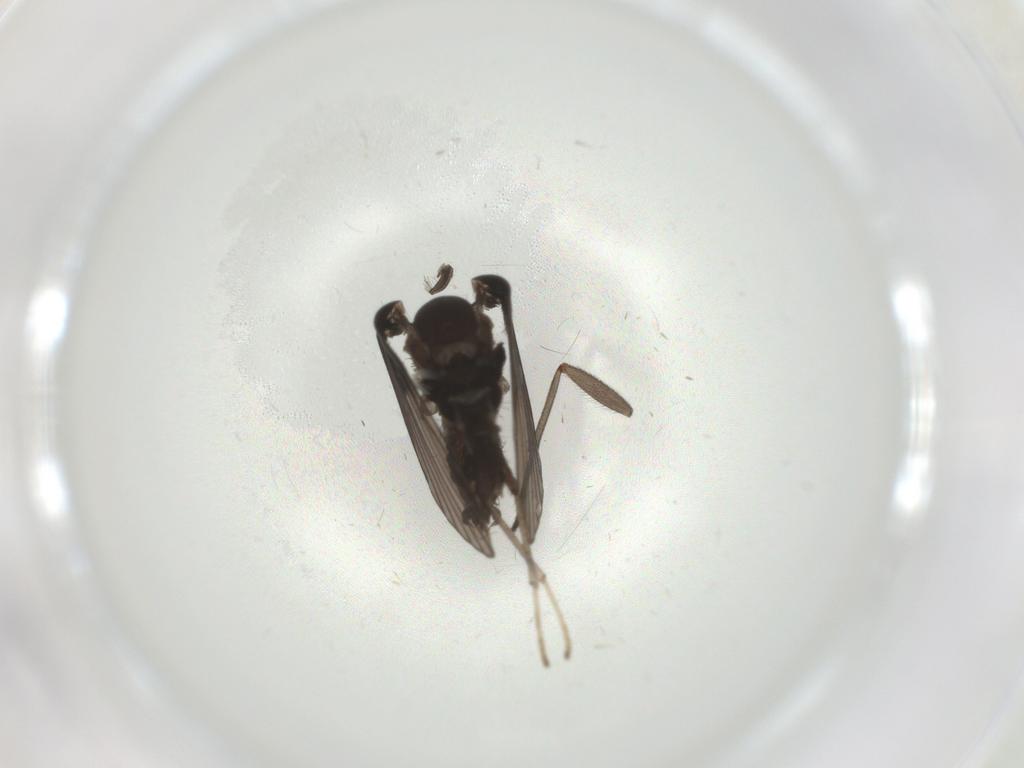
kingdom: Animalia
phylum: Arthropoda
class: Insecta
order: Diptera
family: Sciaridae
